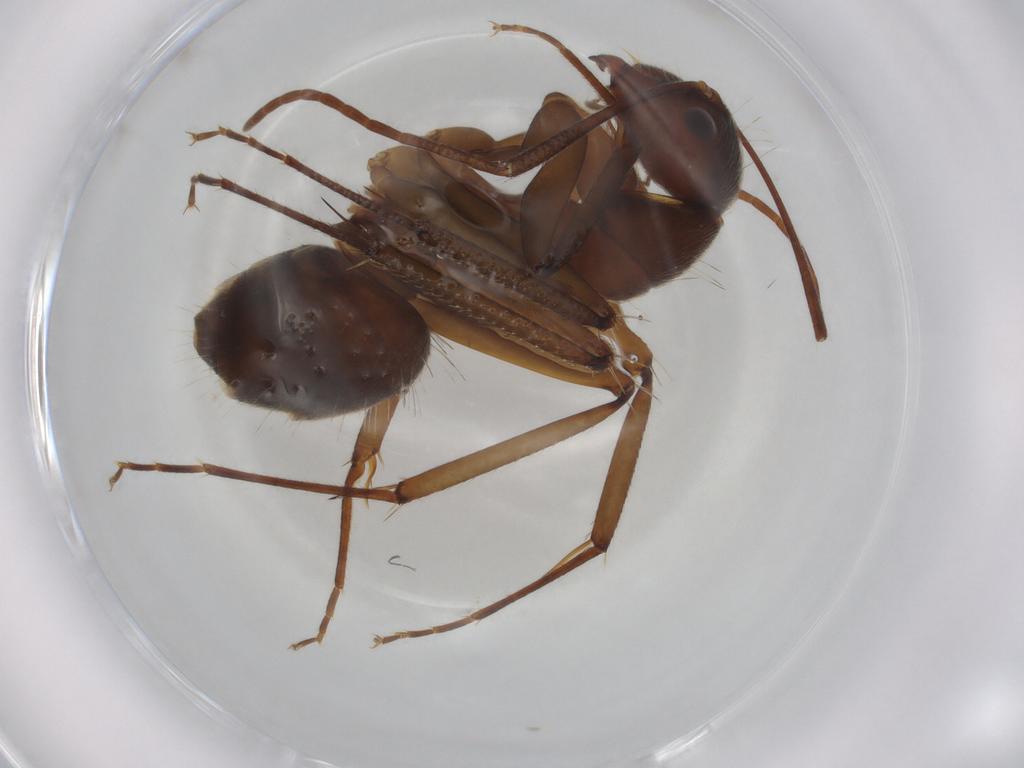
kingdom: Animalia
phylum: Arthropoda
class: Insecta
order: Hymenoptera
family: Formicidae
